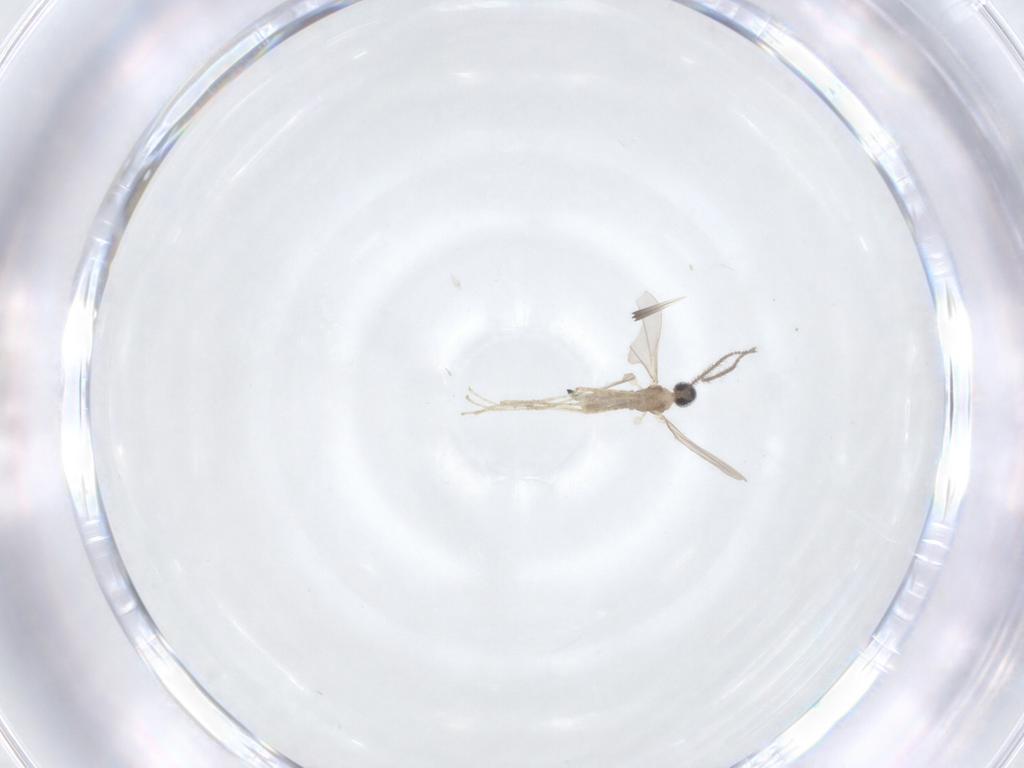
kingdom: Animalia
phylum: Arthropoda
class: Insecta
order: Diptera
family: Cecidomyiidae
